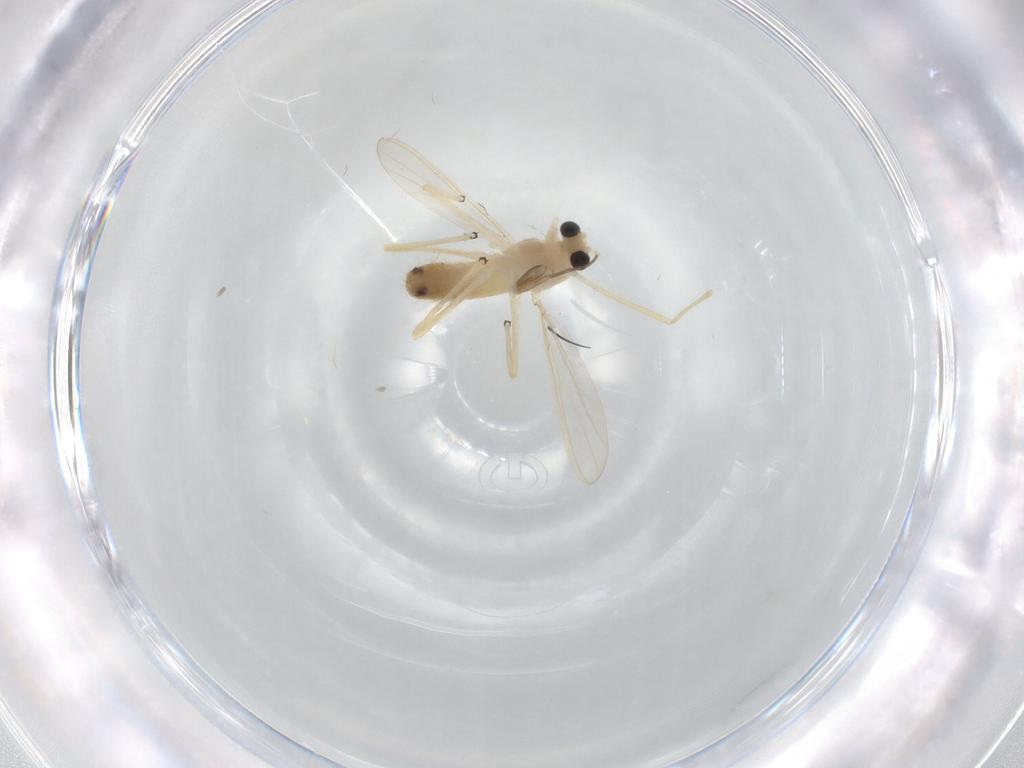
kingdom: Animalia
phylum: Arthropoda
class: Insecta
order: Diptera
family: Chironomidae
